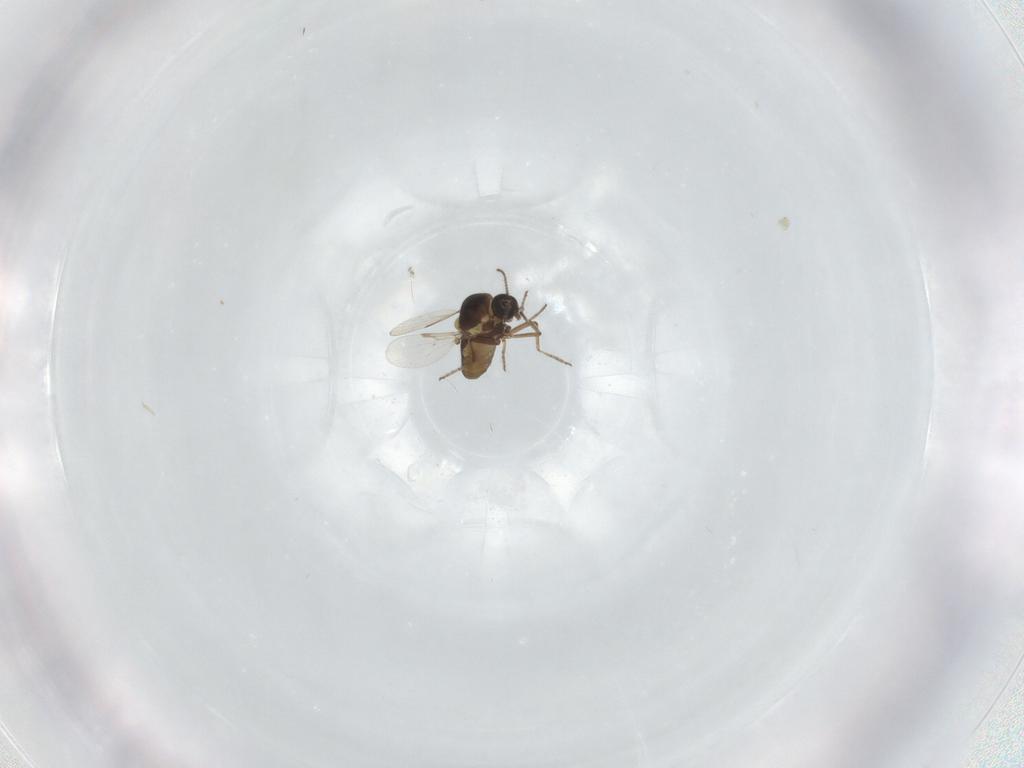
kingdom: Animalia
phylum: Arthropoda
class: Insecta
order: Diptera
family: Ceratopogonidae
